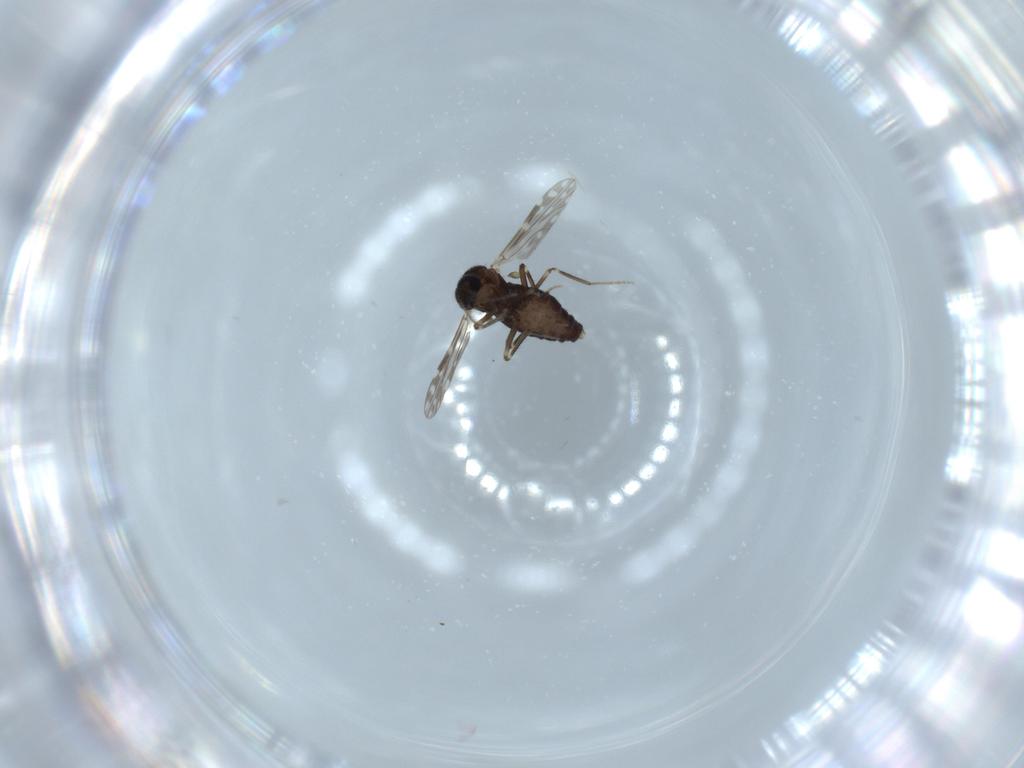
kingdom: Animalia
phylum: Arthropoda
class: Insecta
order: Diptera
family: Ceratopogonidae
